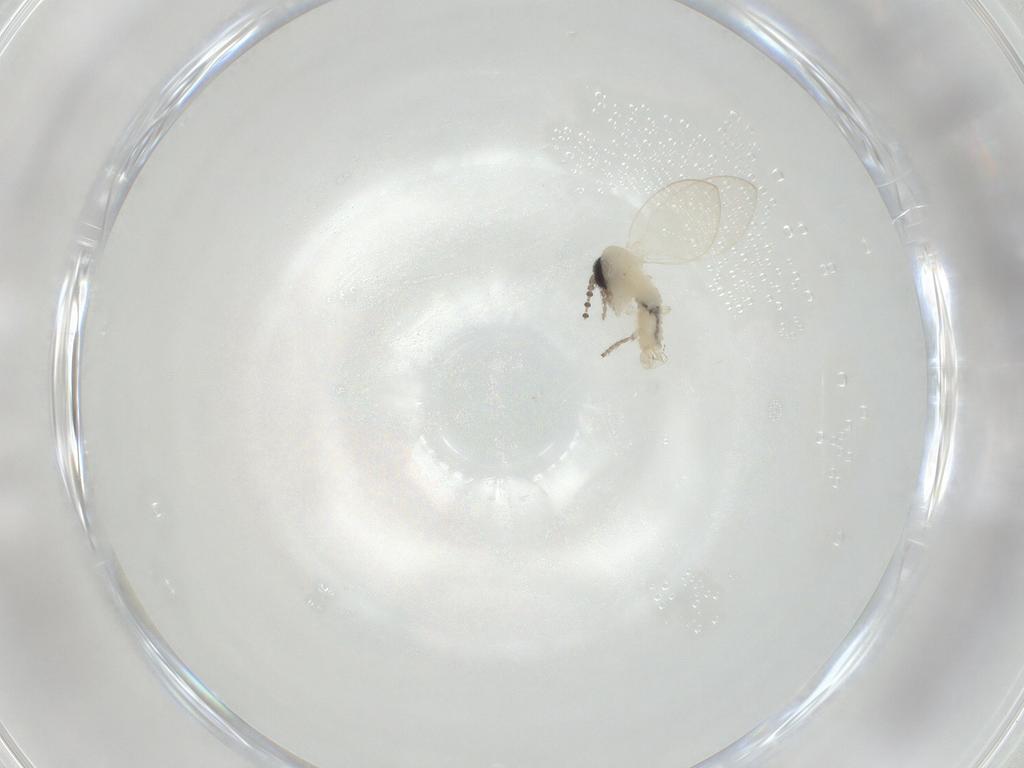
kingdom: Animalia
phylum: Arthropoda
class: Insecta
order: Diptera
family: Psychodidae
